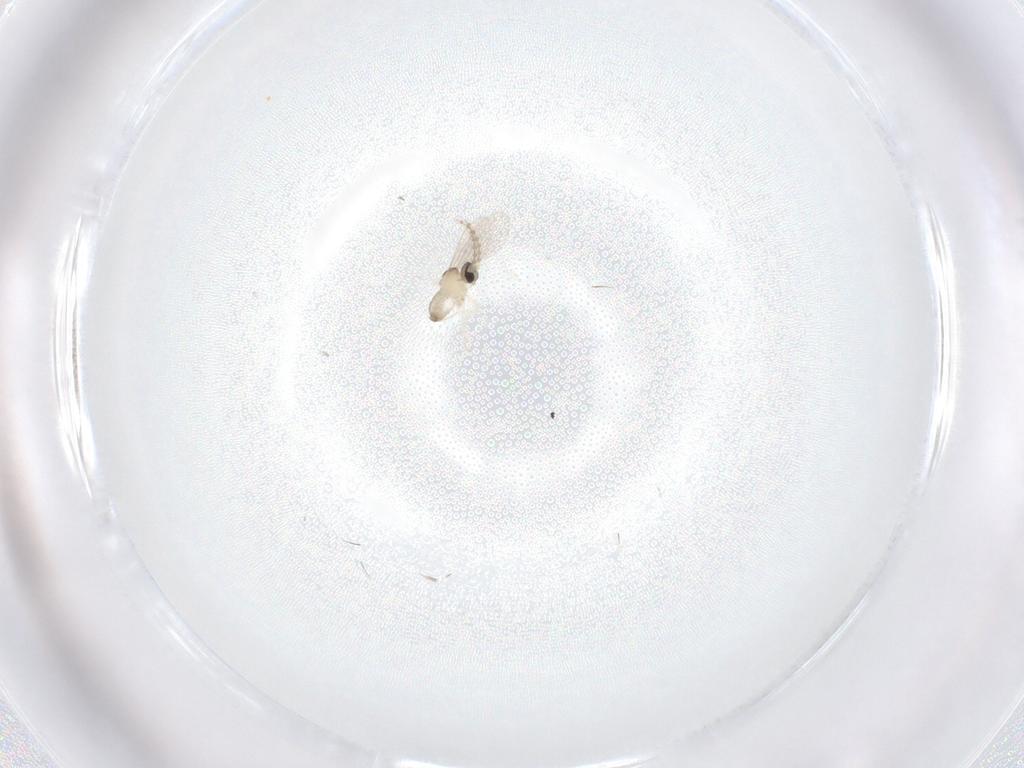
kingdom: Animalia
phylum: Arthropoda
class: Insecta
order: Diptera
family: Cecidomyiidae
